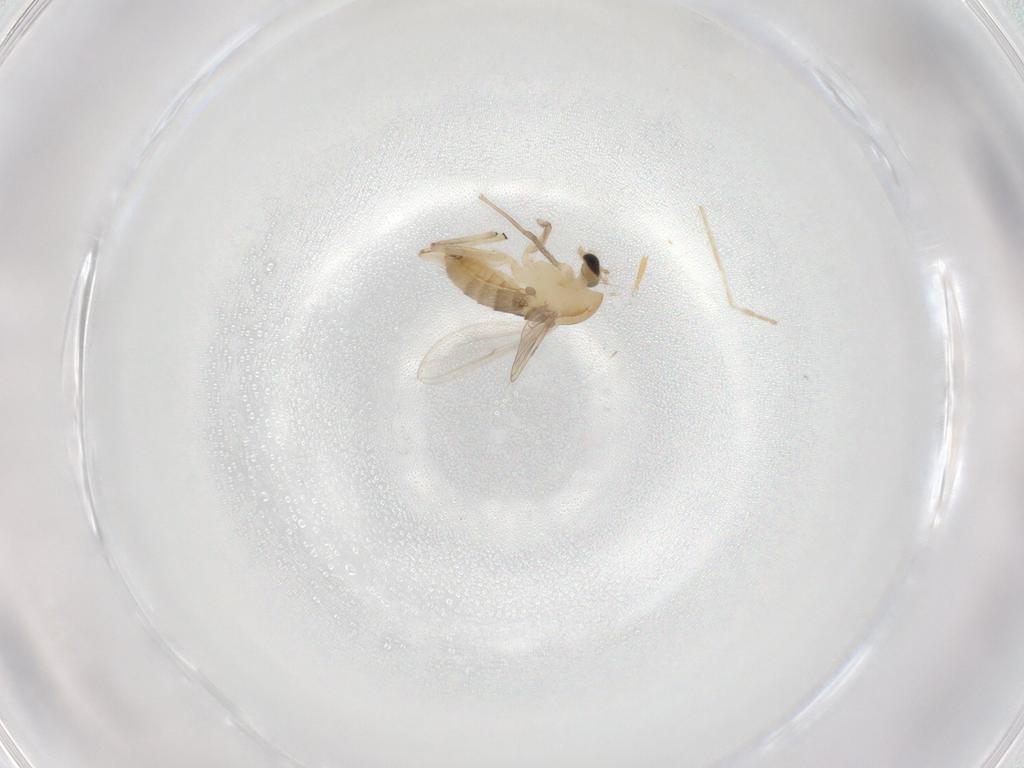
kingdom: Animalia
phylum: Arthropoda
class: Insecta
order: Diptera
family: Chironomidae
